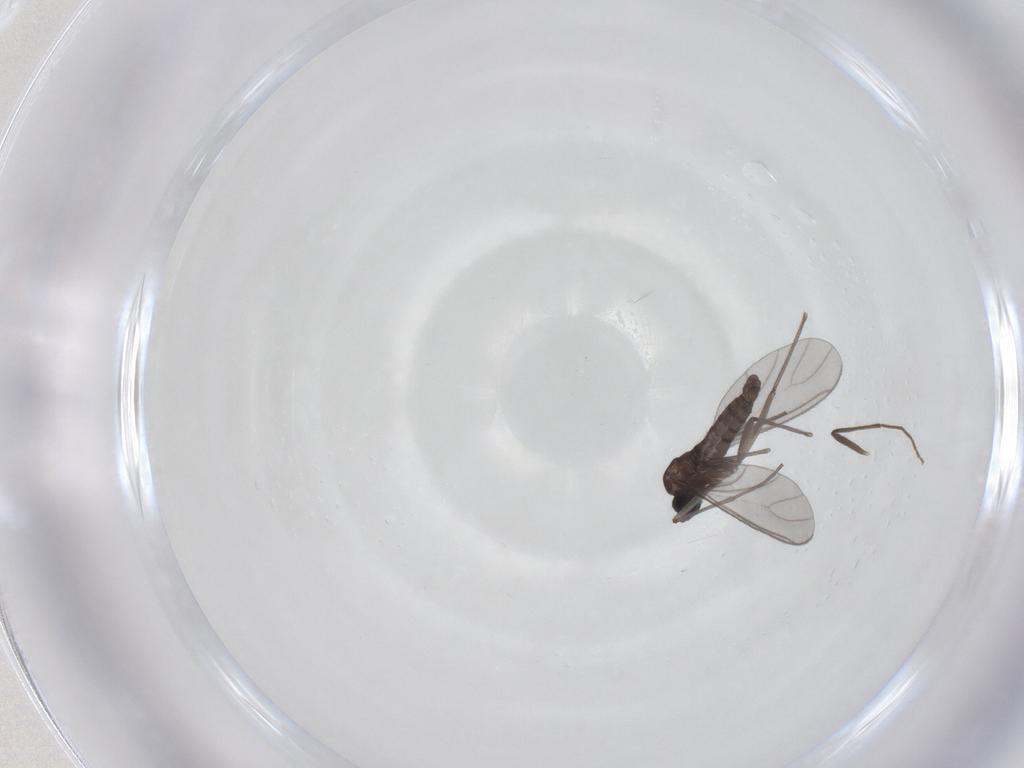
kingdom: Animalia
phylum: Arthropoda
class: Insecta
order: Diptera
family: Sciaridae
